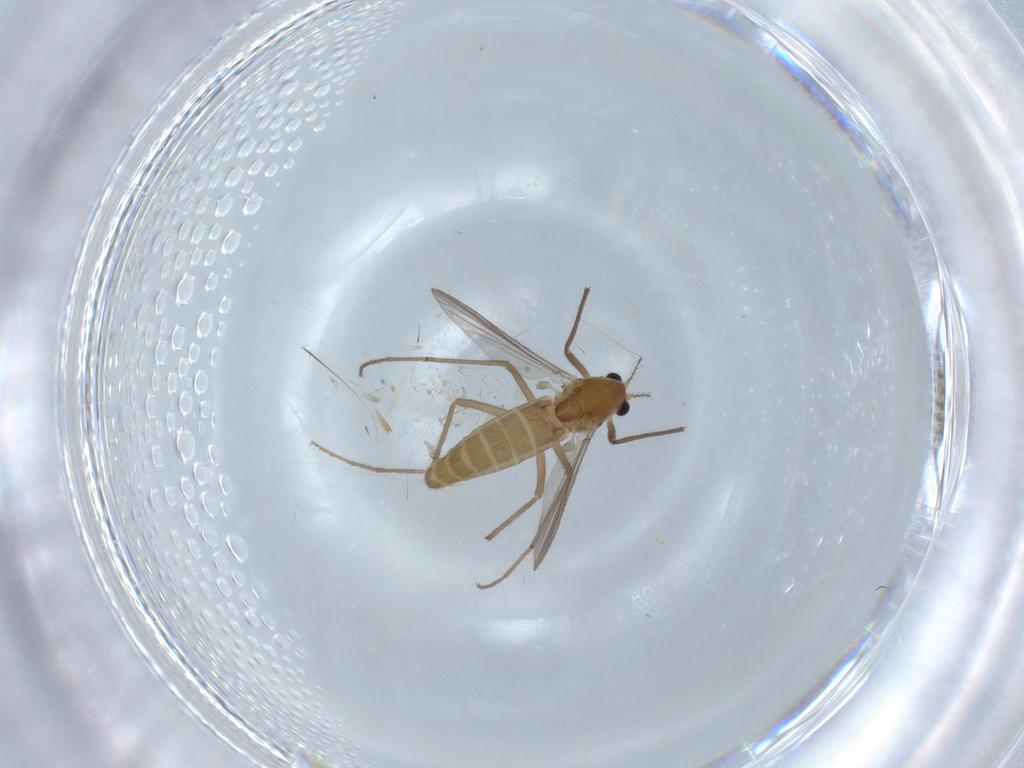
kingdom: Animalia
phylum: Arthropoda
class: Insecta
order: Diptera
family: Chironomidae
